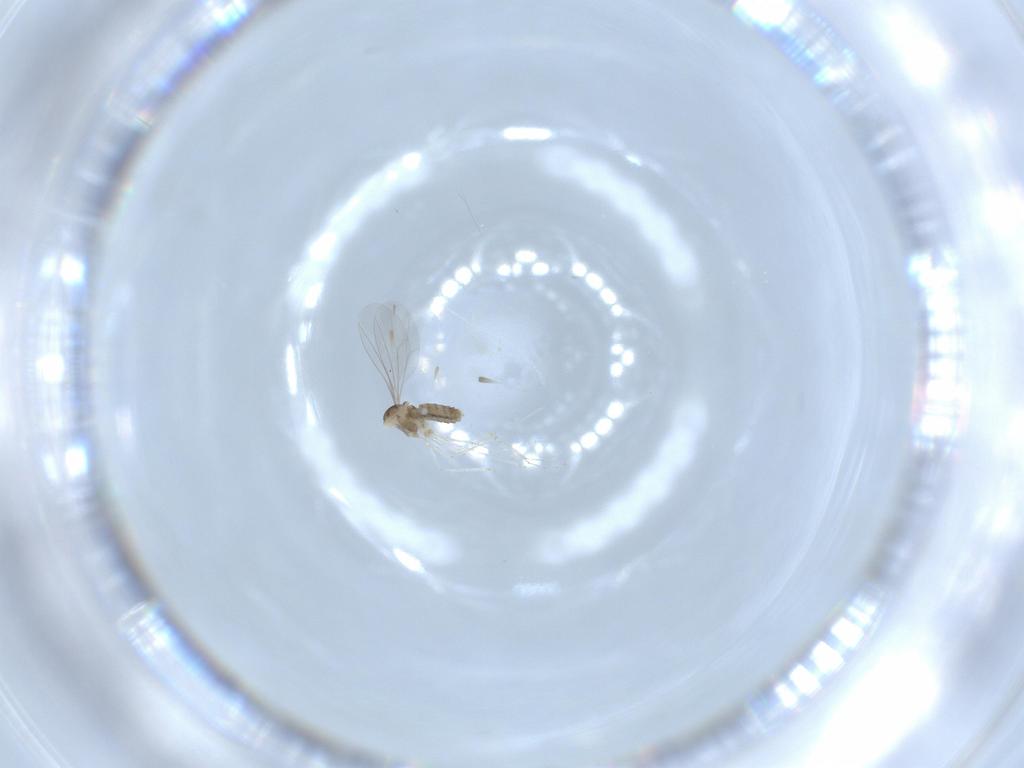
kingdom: Animalia
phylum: Arthropoda
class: Insecta
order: Diptera
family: Cecidomyiidae
